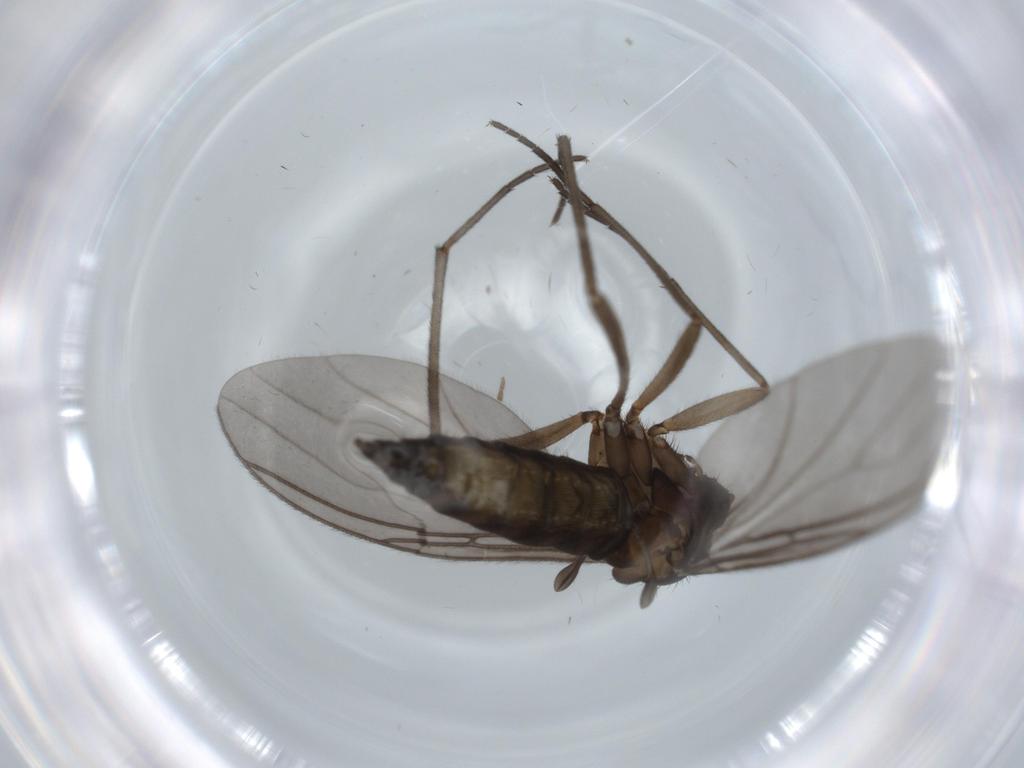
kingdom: Animalia
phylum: Arthropoda
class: Insecta
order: Diptera
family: Sciaridae
